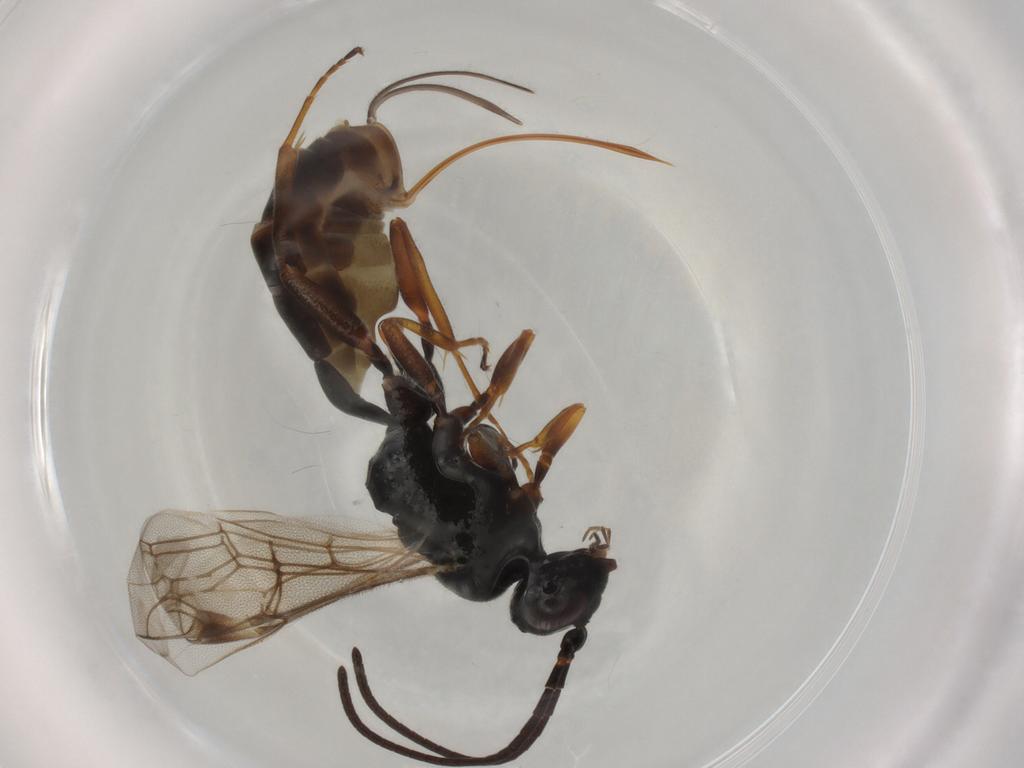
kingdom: Animalia
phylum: Arthropoda
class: Insecta
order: Hymenoptera
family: Ichneumonidae
